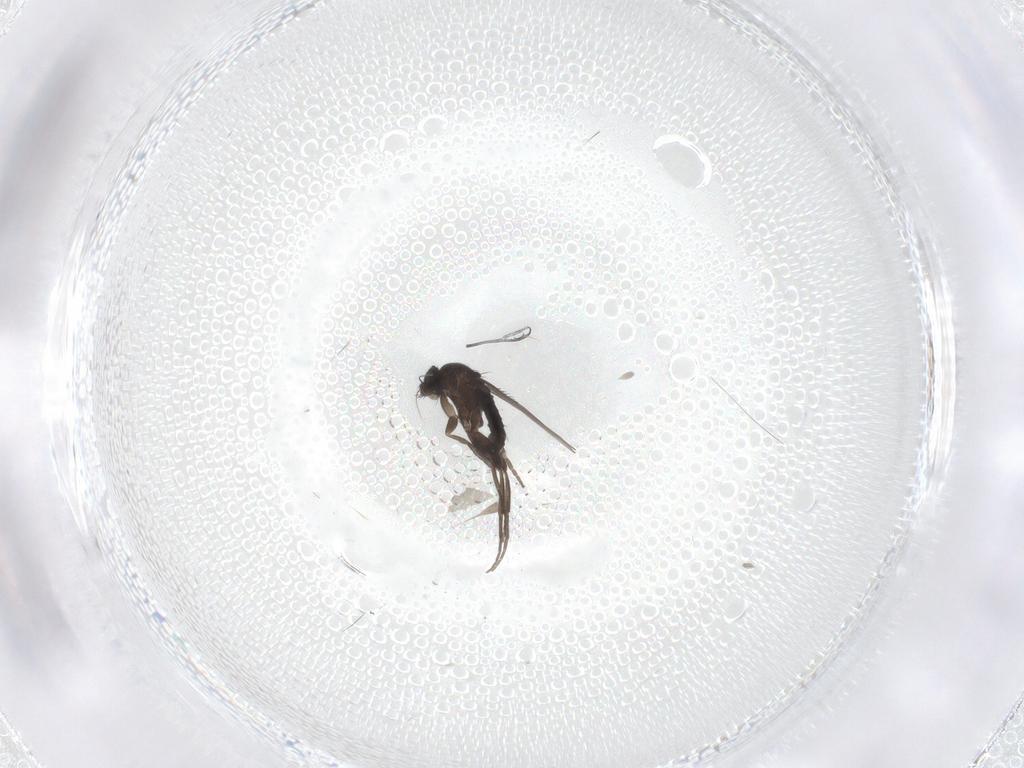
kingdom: Animalia
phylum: Arthropoda
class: Insecta
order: Diptera
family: Phoridae
